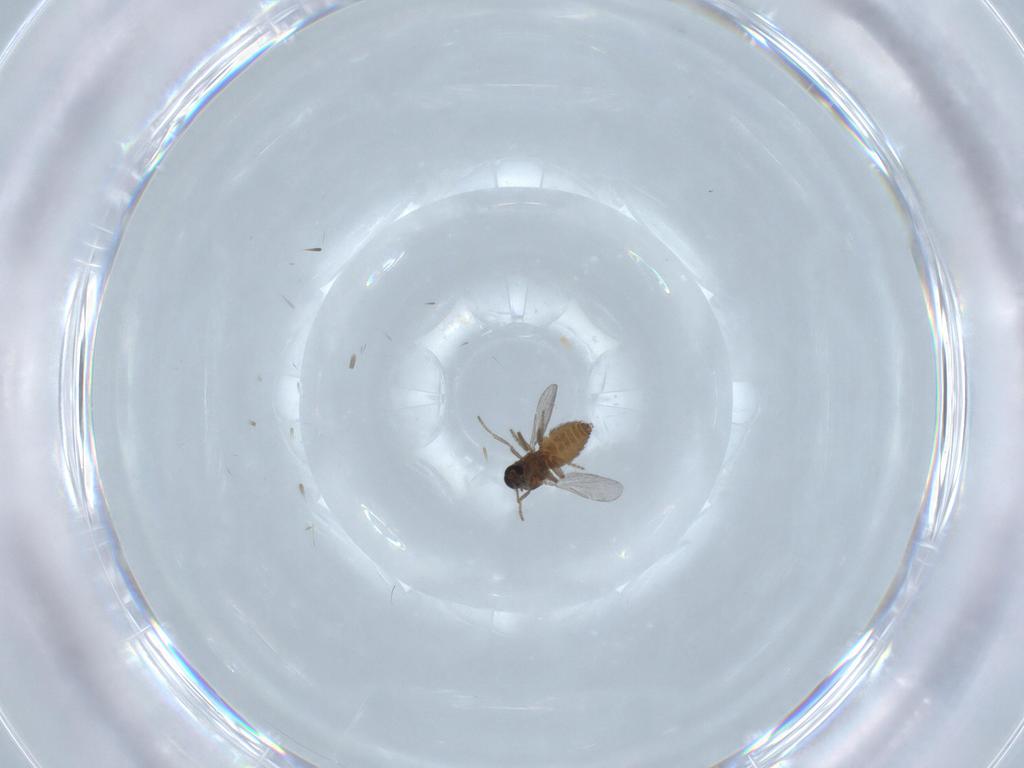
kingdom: Animalia
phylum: Arthropoda
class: Insecta
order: Diptera
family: Ceratopogonidae
